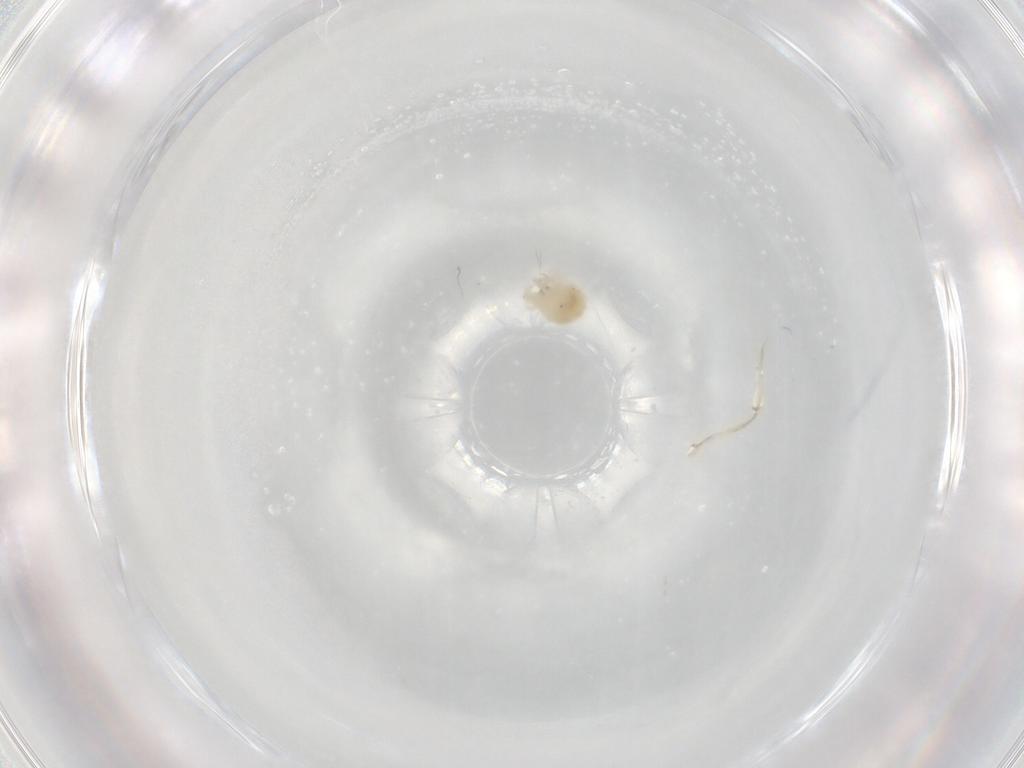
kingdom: Animalia
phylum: Arthropoda
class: Arachnida
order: Trombidiformes
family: Anystidae
